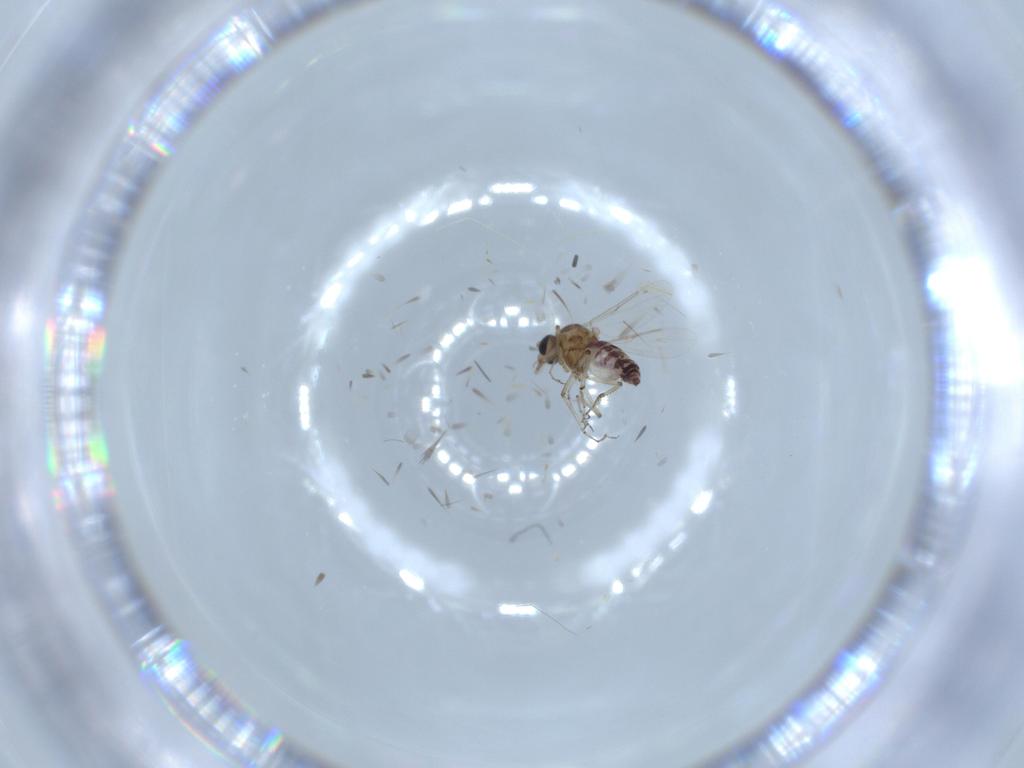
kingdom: Animalia
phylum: Arthropoda
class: Insecta
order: Diptera
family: Ceratopogonidae
